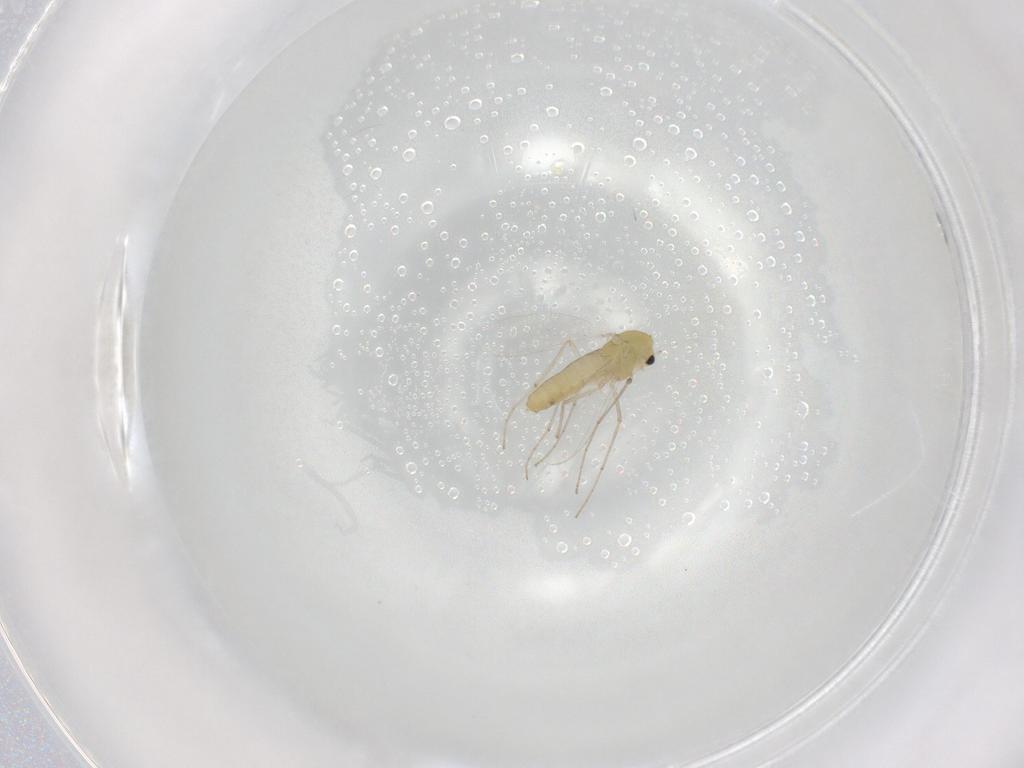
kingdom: Animalia
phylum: Arthropoda
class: Insecta
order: Diptera
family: Chironomidae
